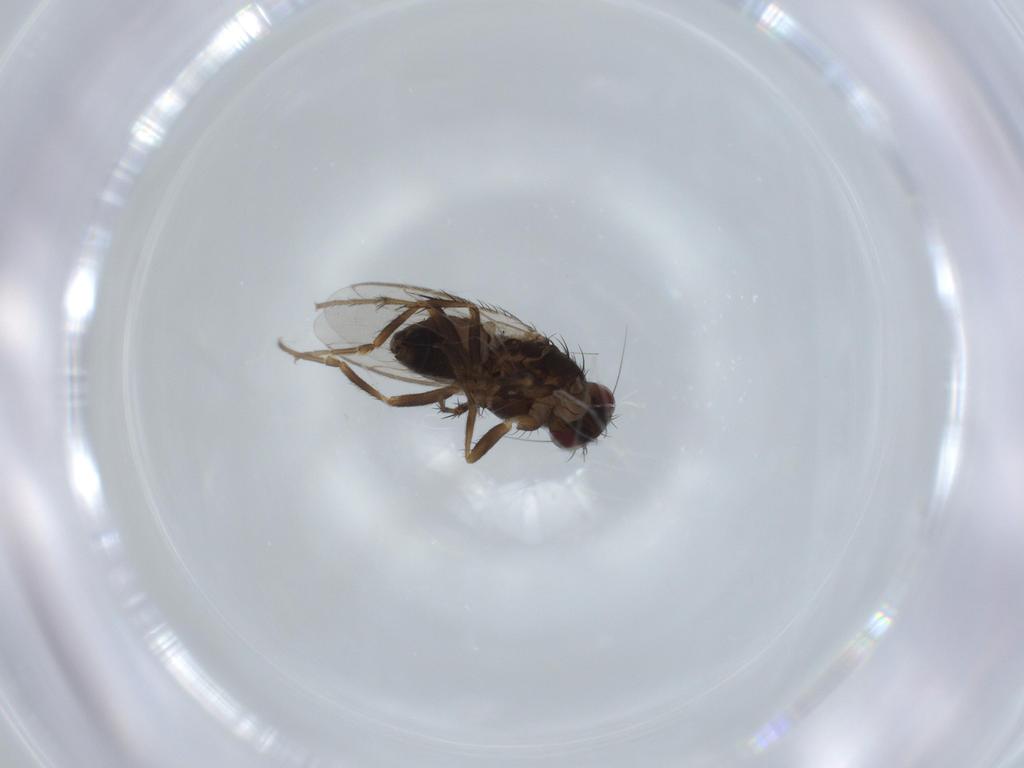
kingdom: Animalia
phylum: Arthropoda
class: Insecta
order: Diptera
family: Sphaeroceridae
